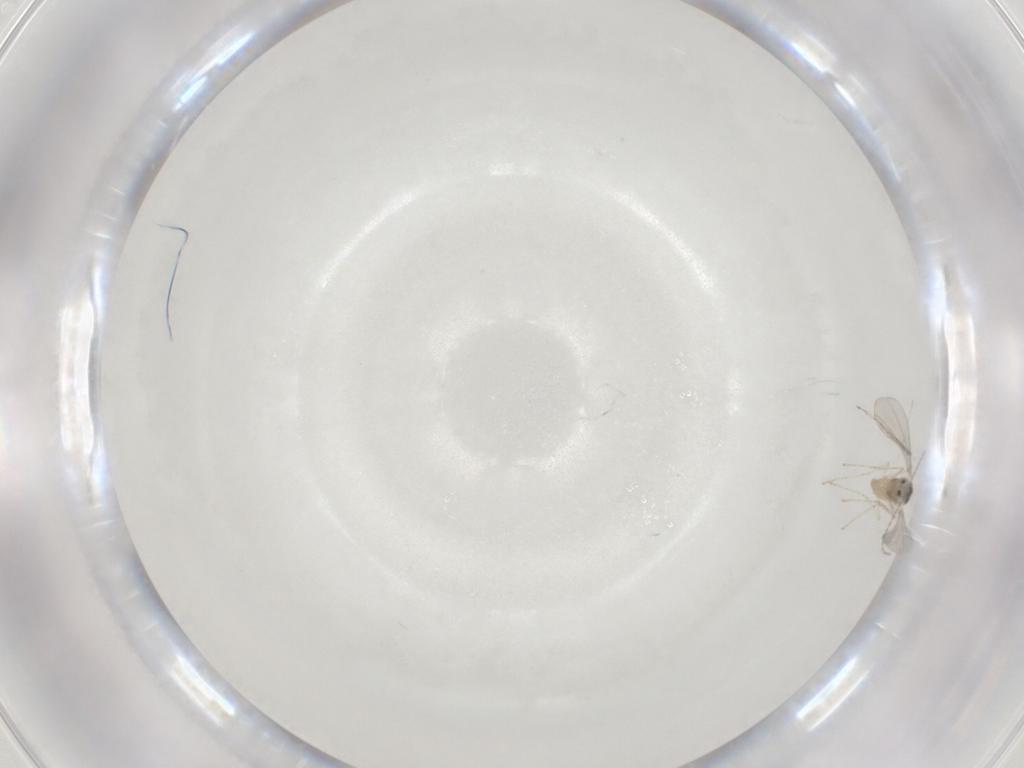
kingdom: Animalia
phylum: Arthropoda
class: Insecta
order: Diptera
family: Cecidomyiidae
